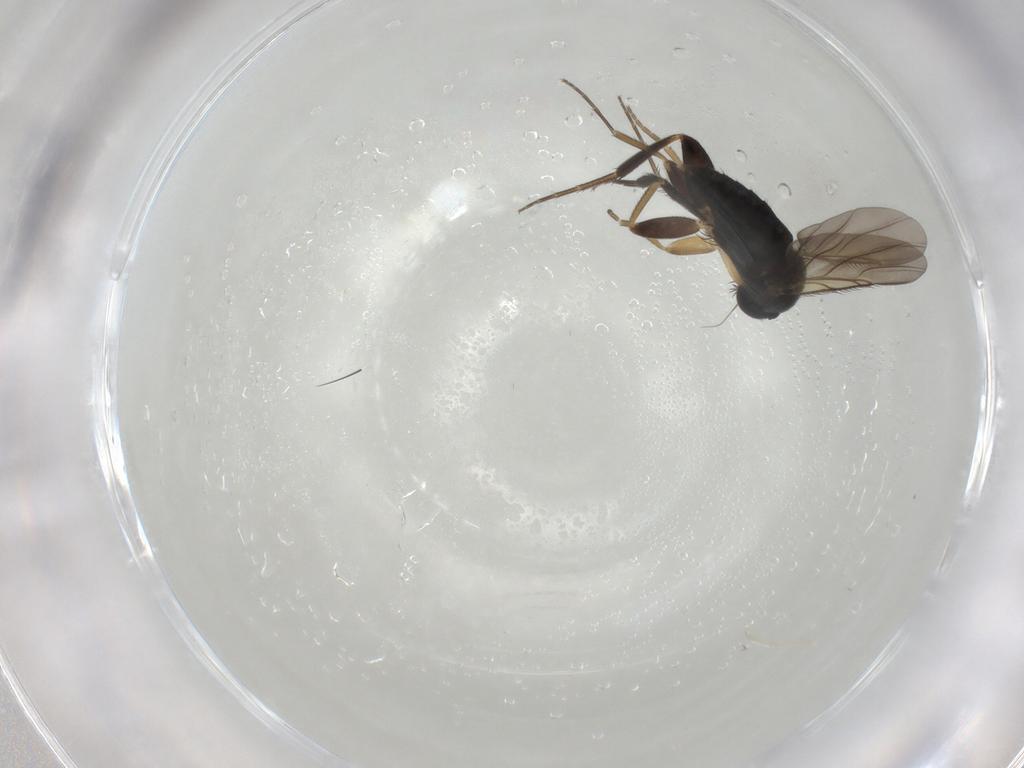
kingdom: Animalia
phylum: Arthropoda
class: Insecta
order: Diptera
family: Phoridae
